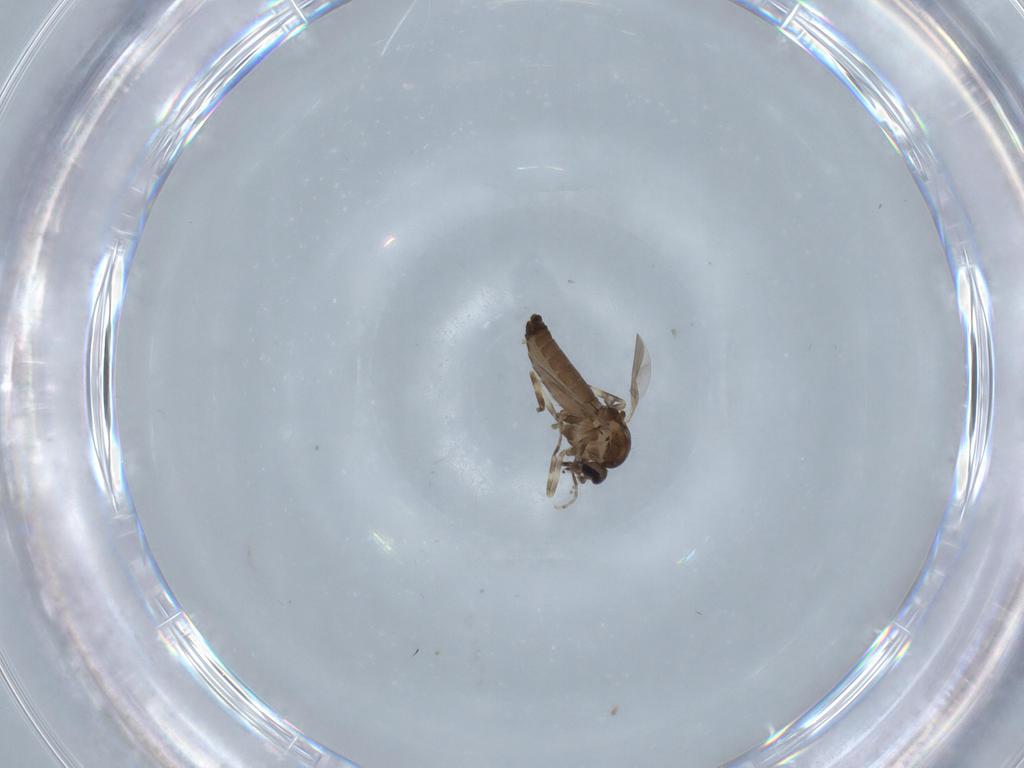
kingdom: Animalia
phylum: Arthropoda
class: Insecta
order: Diptera
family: Ceratopogonidae
